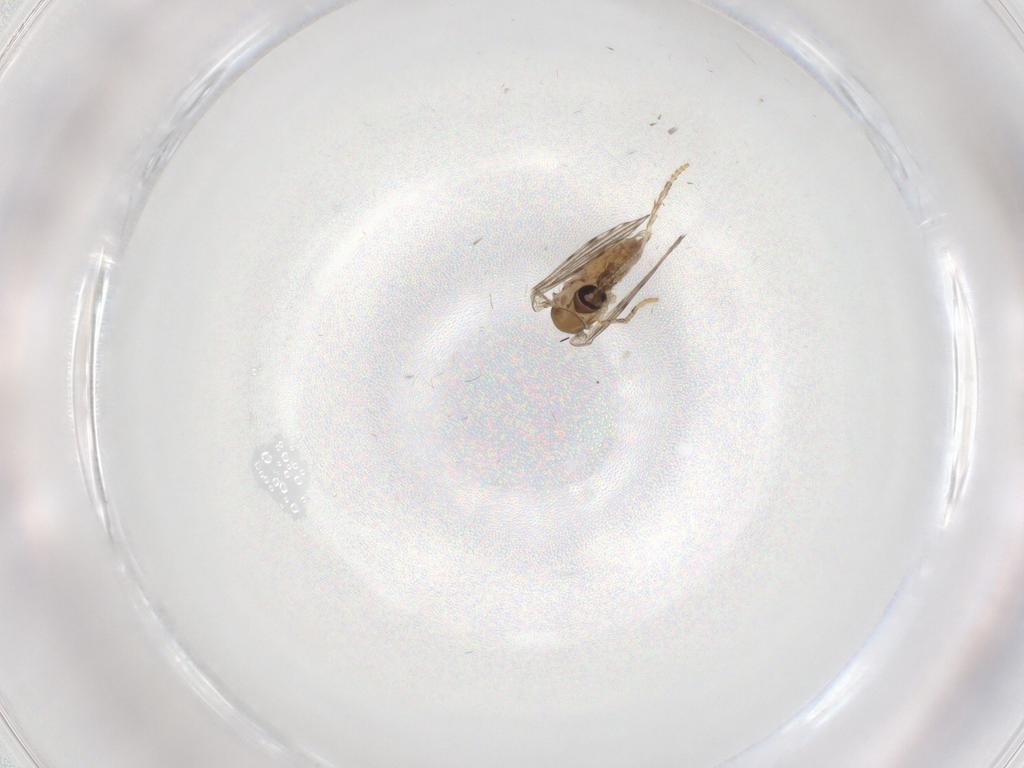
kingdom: Animalia
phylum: Arthropoda
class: Insecta
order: Diptera
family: Psychodidae
